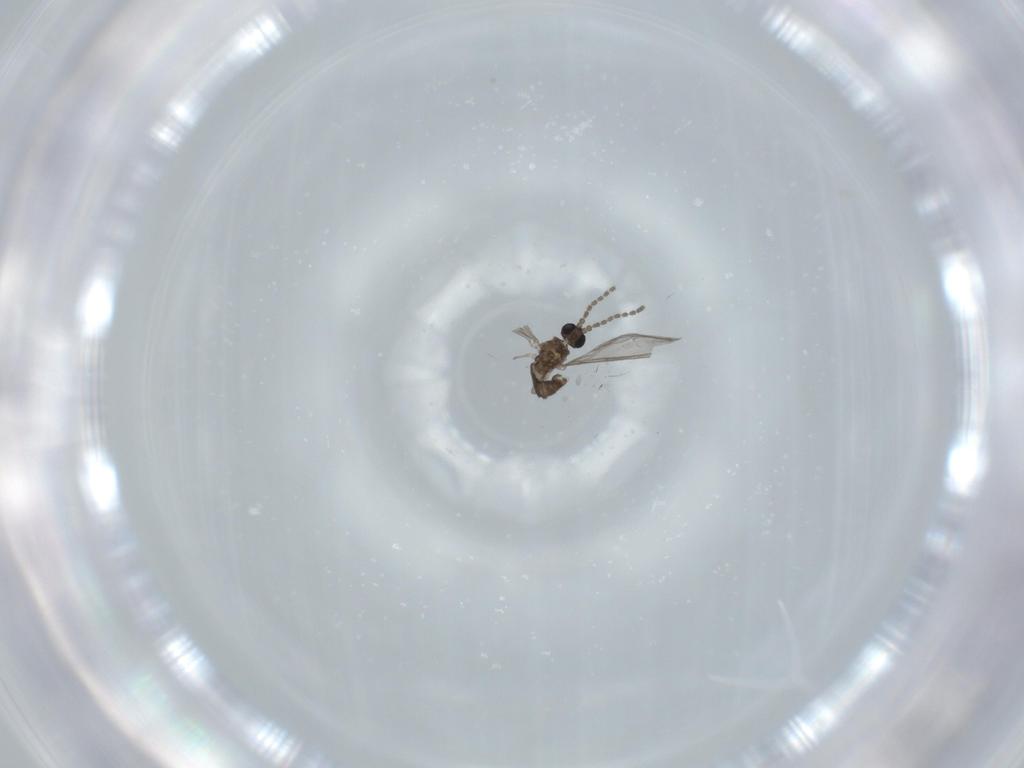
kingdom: Animalia
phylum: Arthropoda
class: Insecta
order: Diptera
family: Sciaridae
